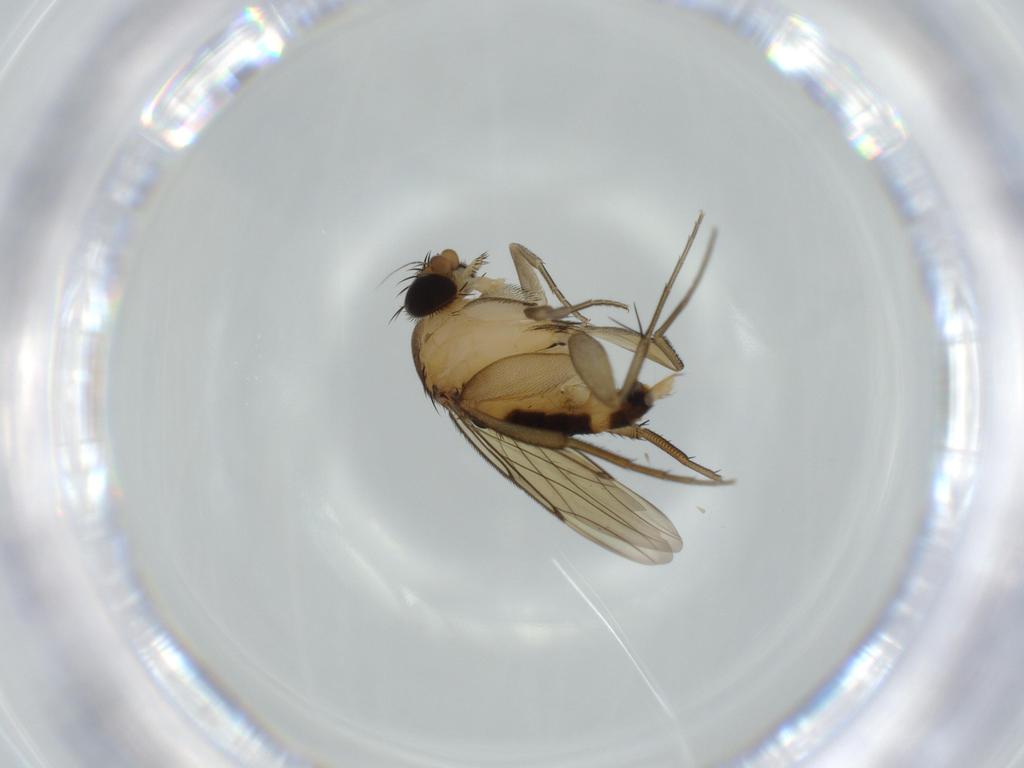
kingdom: Animalia
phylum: Arthropoda
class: Insecta
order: Diptera
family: Phoridae
